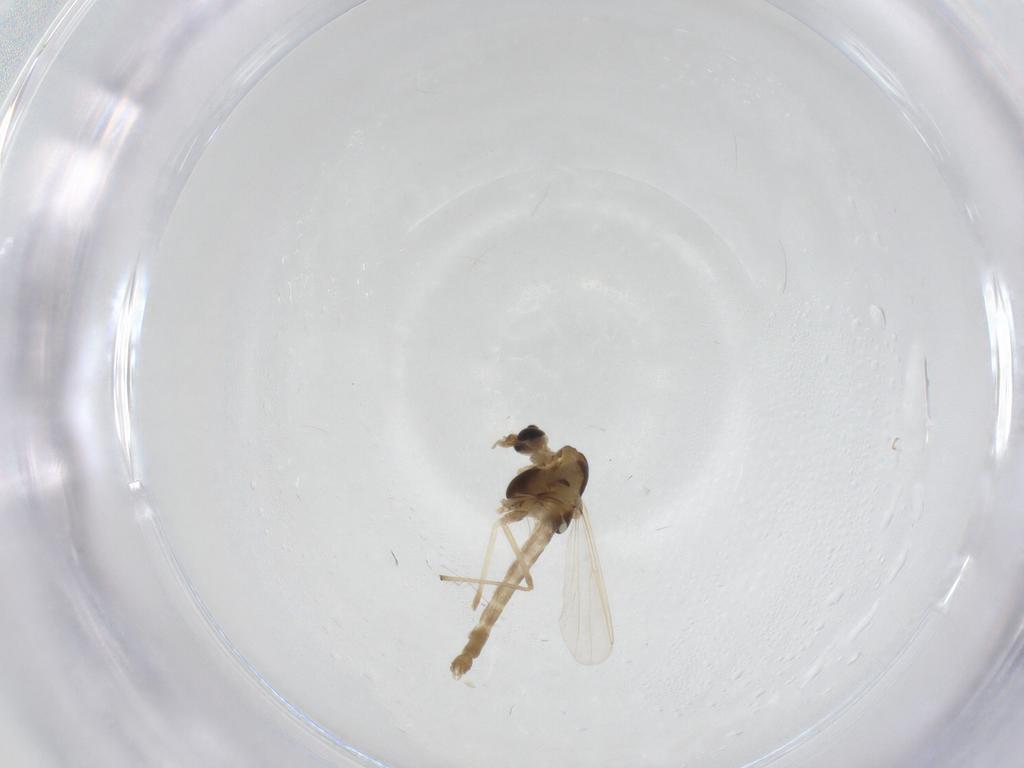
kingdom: Animalia
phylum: Arthropoda
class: Insecta
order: Diptera
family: Chironomidae
